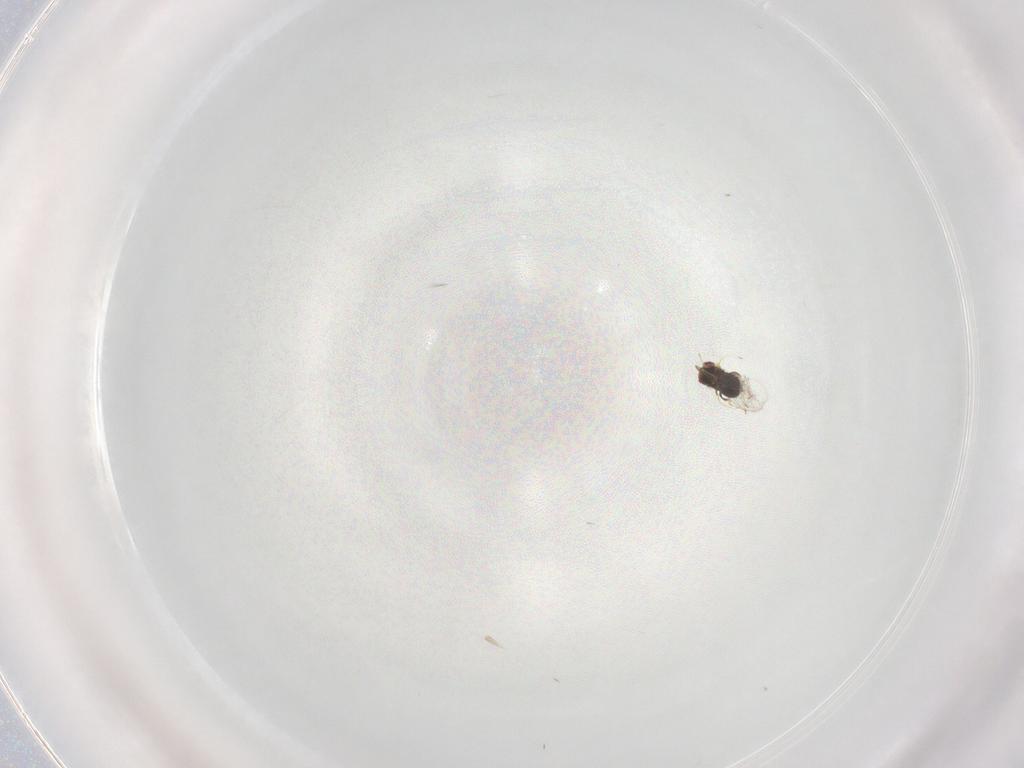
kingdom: Animalia
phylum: Arthropoda
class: Insecta
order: Hymenoptera
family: Trichogrammatidae
